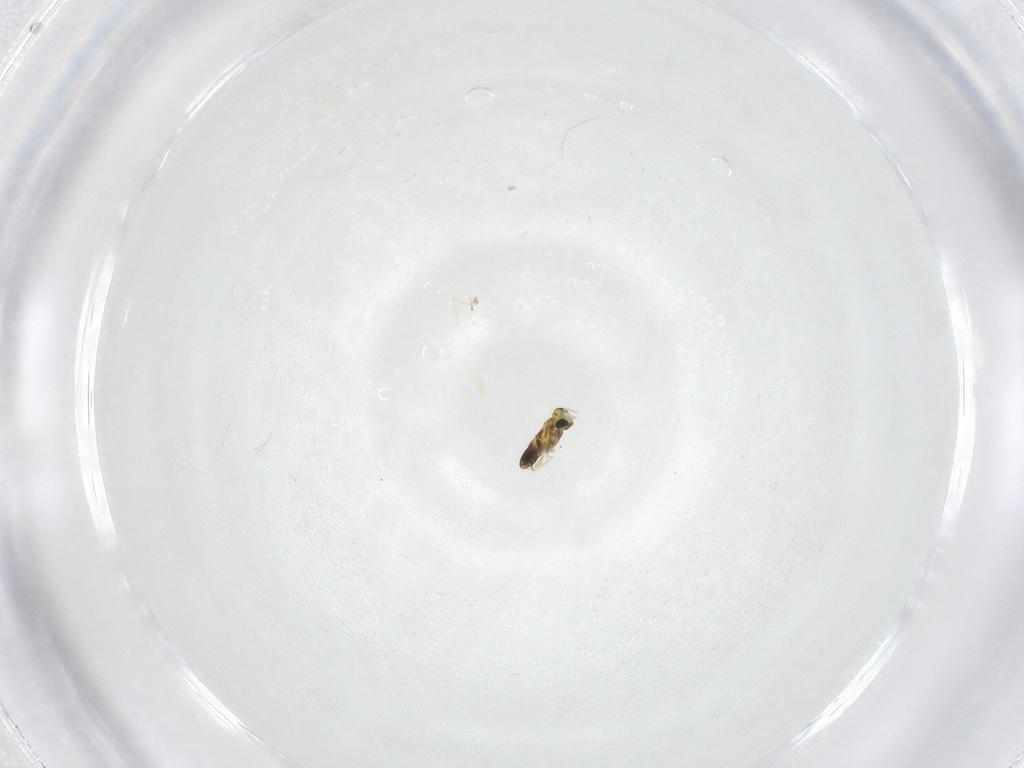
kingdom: Animalia
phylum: Arthropoda
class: Insecta
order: Hymenoptera
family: Trichogrammatidae
